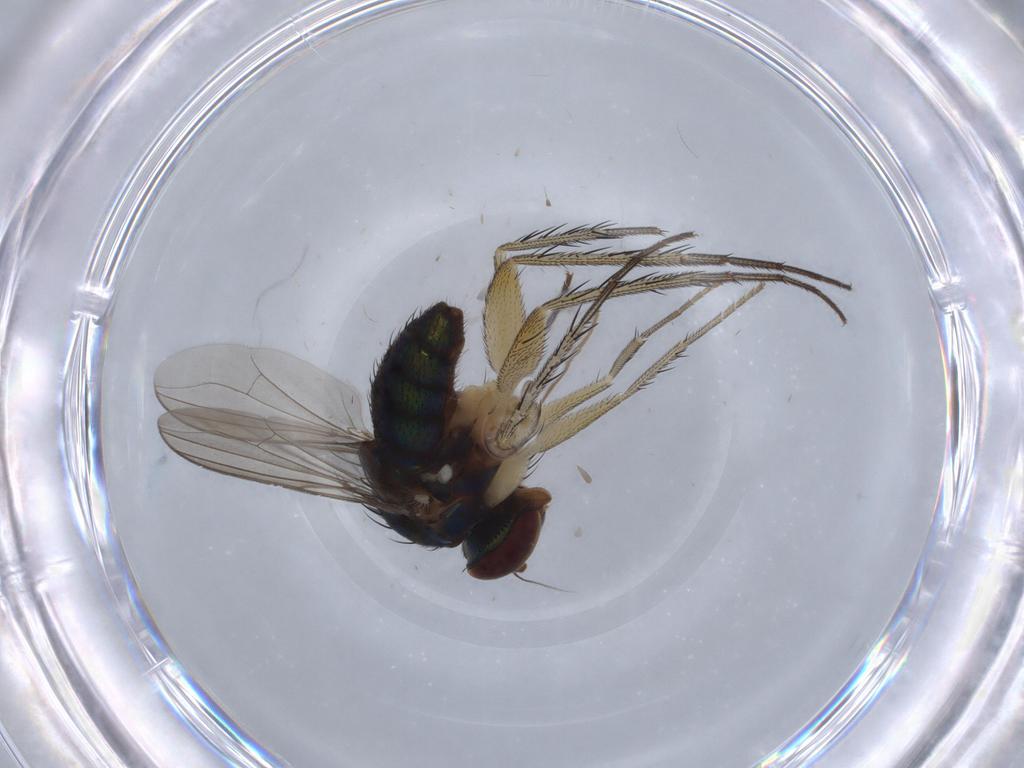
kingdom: Animalia
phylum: Arthropoda
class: Insecta
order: Diptera
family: Dolichopodidae
